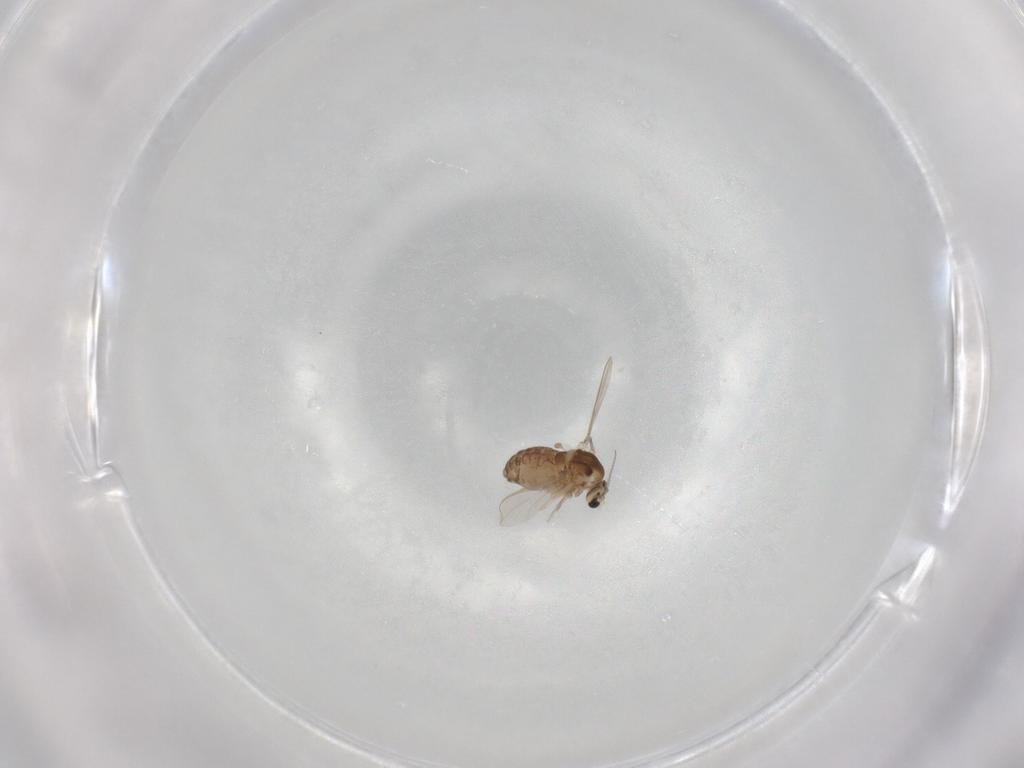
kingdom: Animalia
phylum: Arthropoda
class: Insecta
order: Diptera
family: Chironomidae
